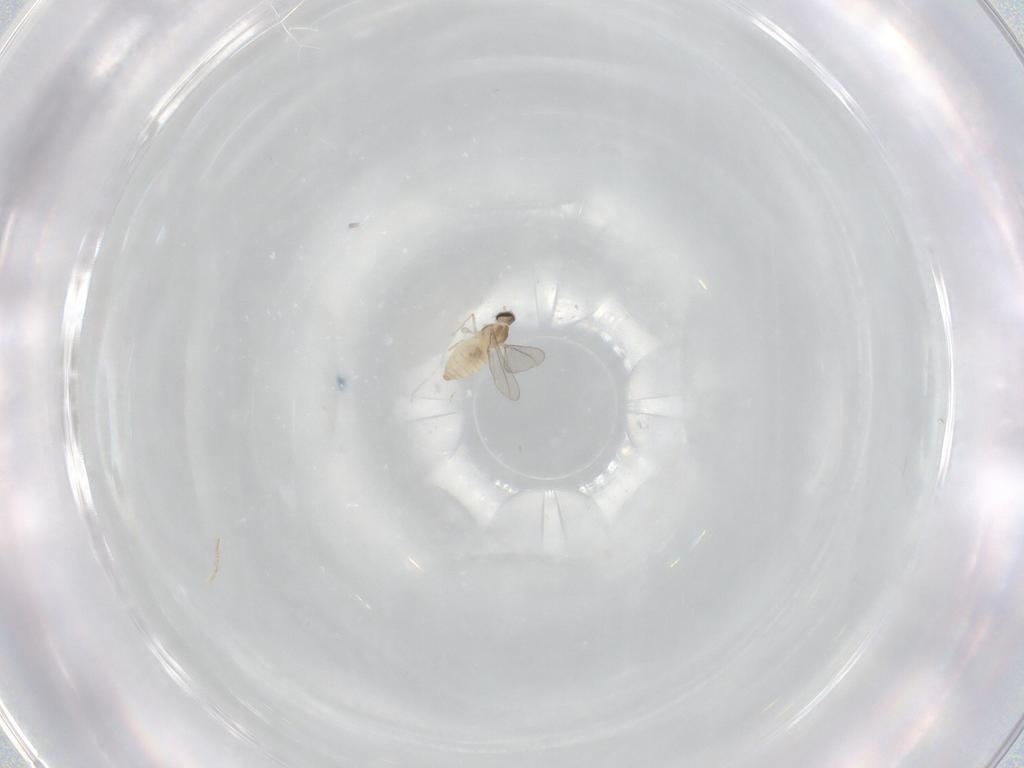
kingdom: Animalia
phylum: Arthropoda
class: Insecta
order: Diptera
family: Cecidomyiidae
